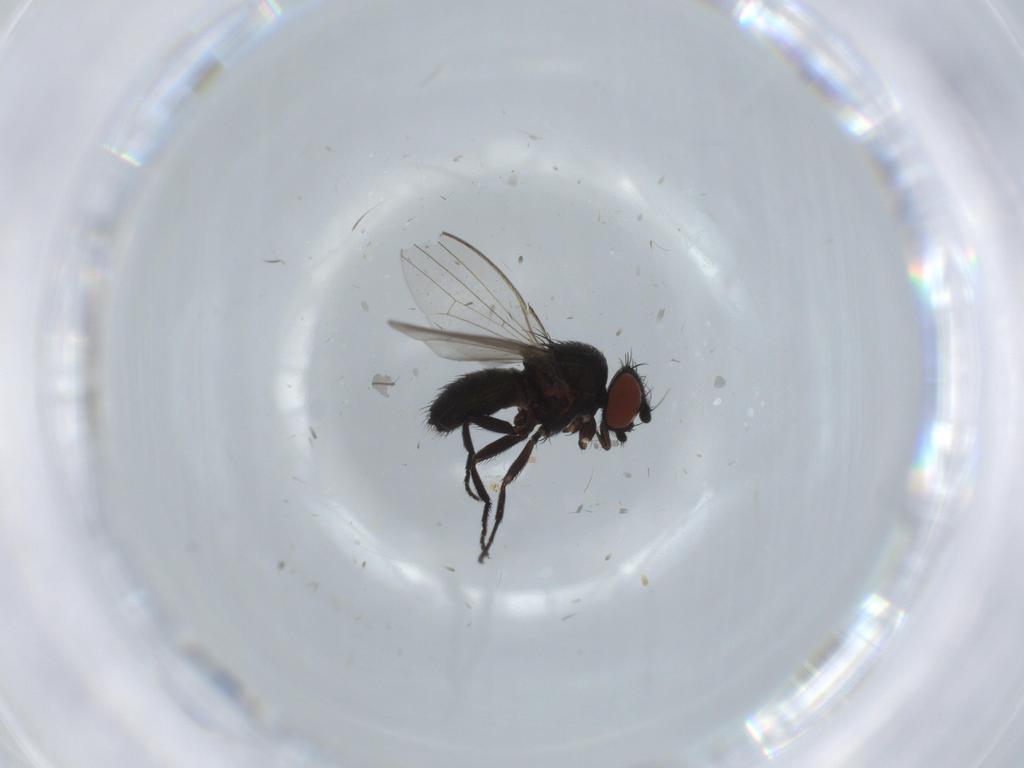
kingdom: Animalia
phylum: Arthropoda
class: Insecta
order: Diptera
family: Milichiidae
